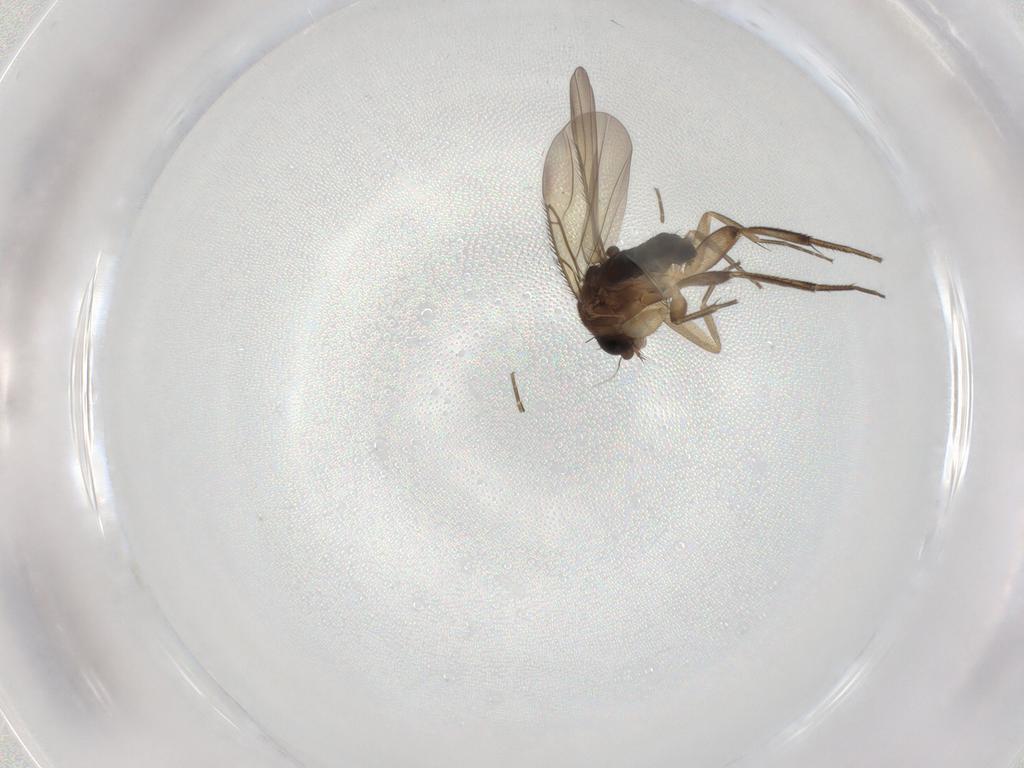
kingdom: Animalia
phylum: Arthropoda
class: Insecta
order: Diptera
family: Phoridae
